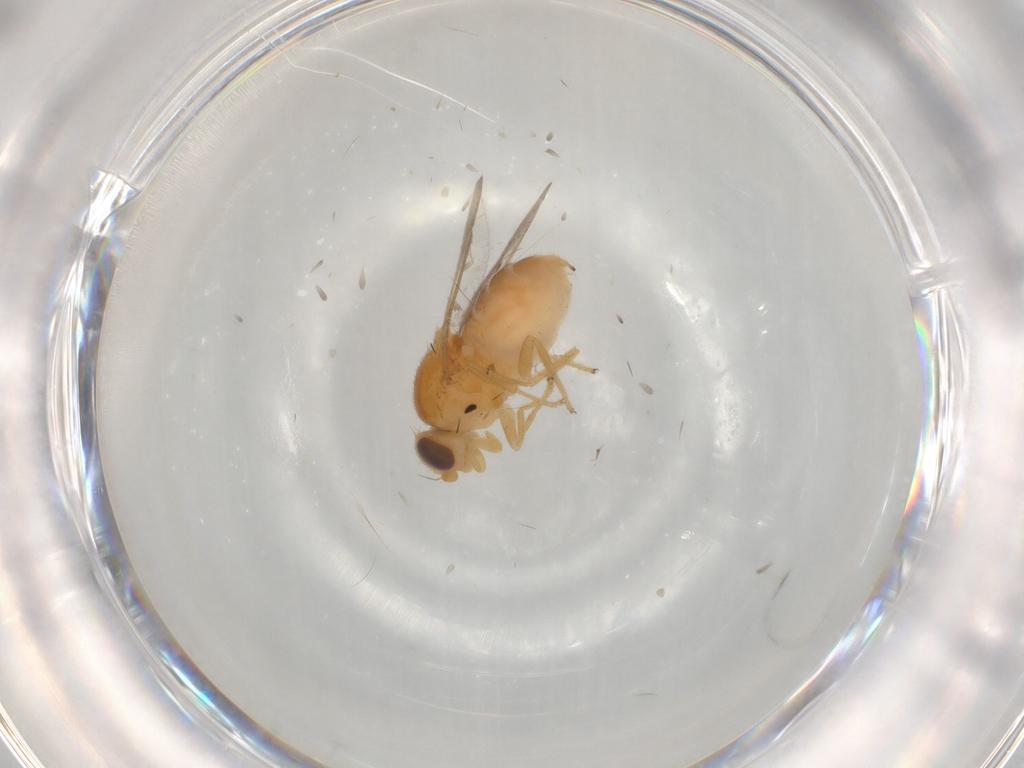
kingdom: Animalia
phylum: Arthropoda
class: Insecta
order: Diptera
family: Chloropidae
